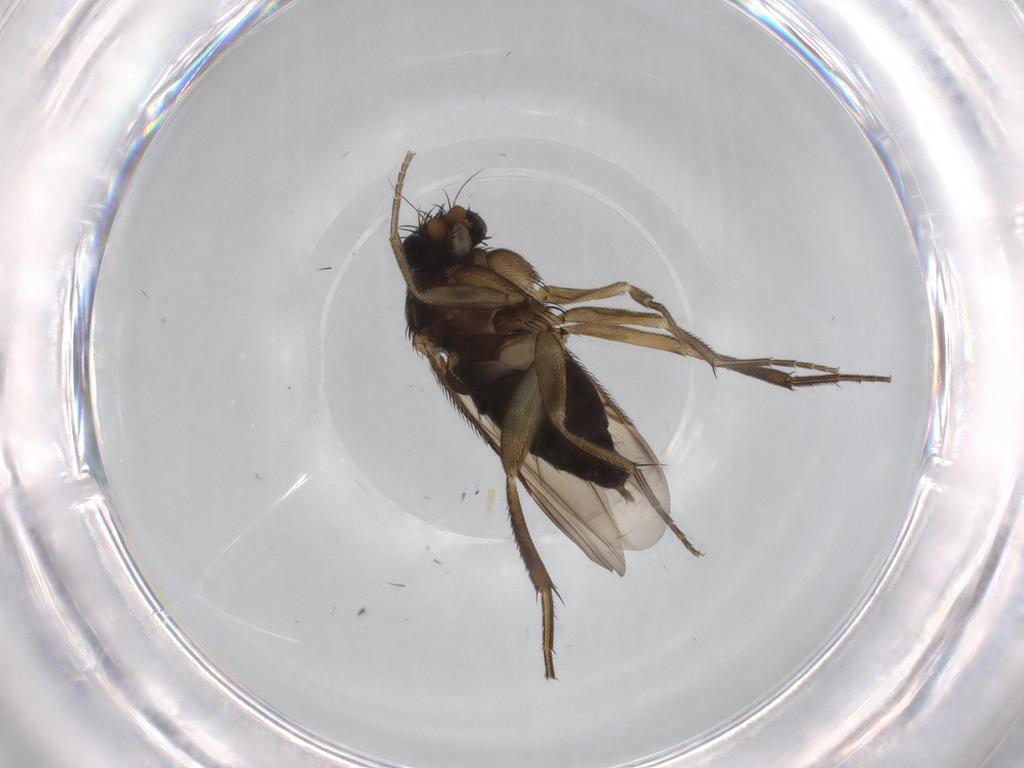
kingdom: Animalia
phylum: Arthropoda
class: Insecta
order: Diptera
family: Phoridae
